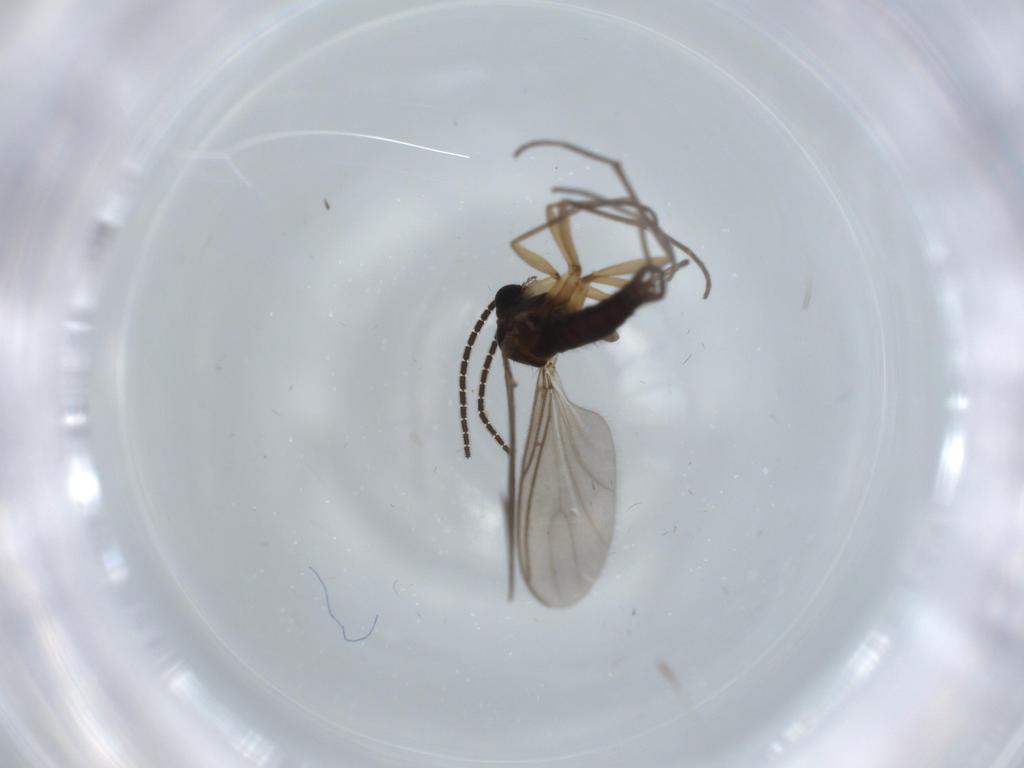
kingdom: Animalia
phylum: Arthropoda
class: Insecta
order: Diptera
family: Sciaridae
